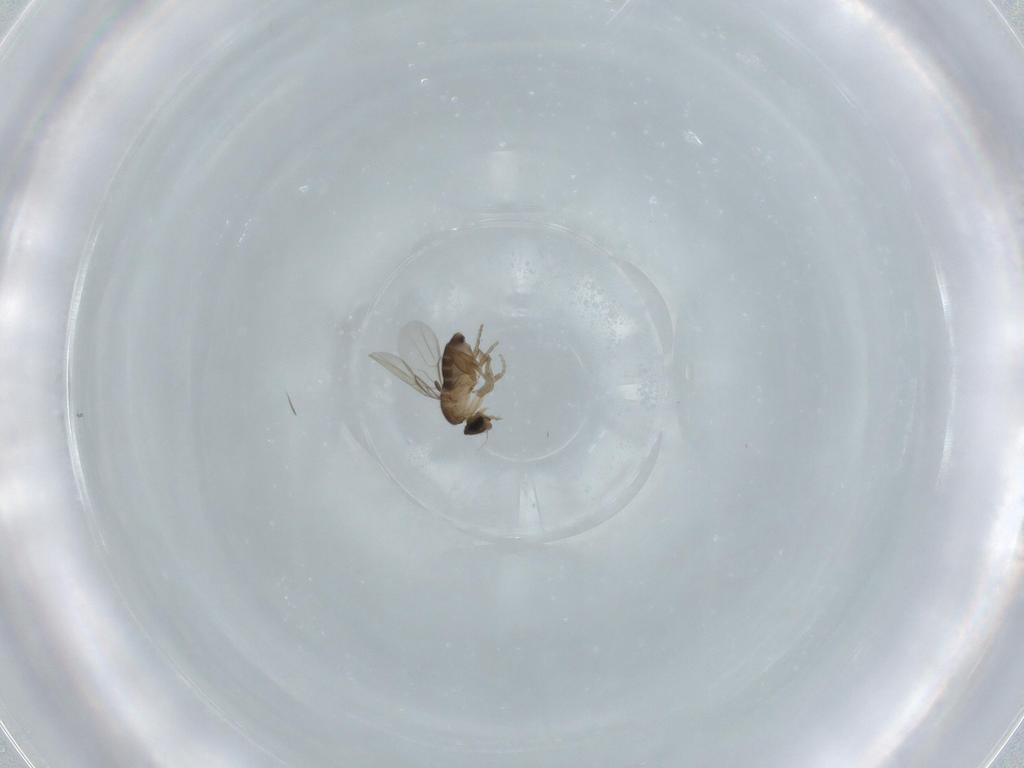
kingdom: Animalia
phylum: Arthropoda
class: Insecta
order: Diptera
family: Phoridae
